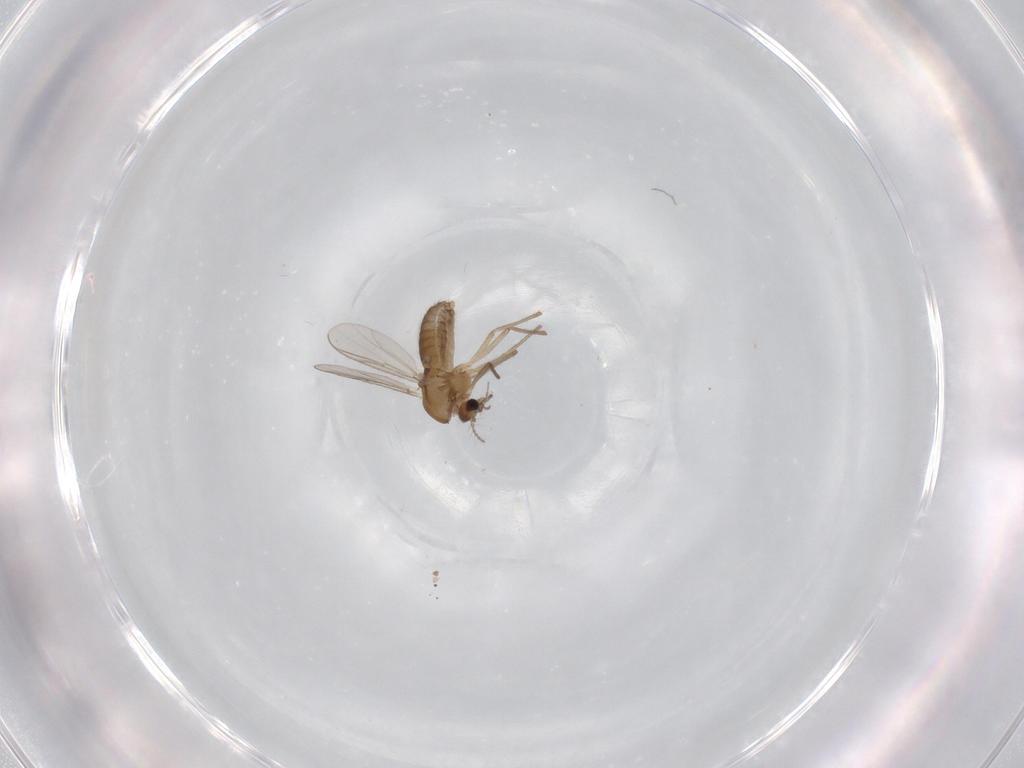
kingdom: Animalia
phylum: Arthropoda
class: Insecta
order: Diptera
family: Chironomidae
